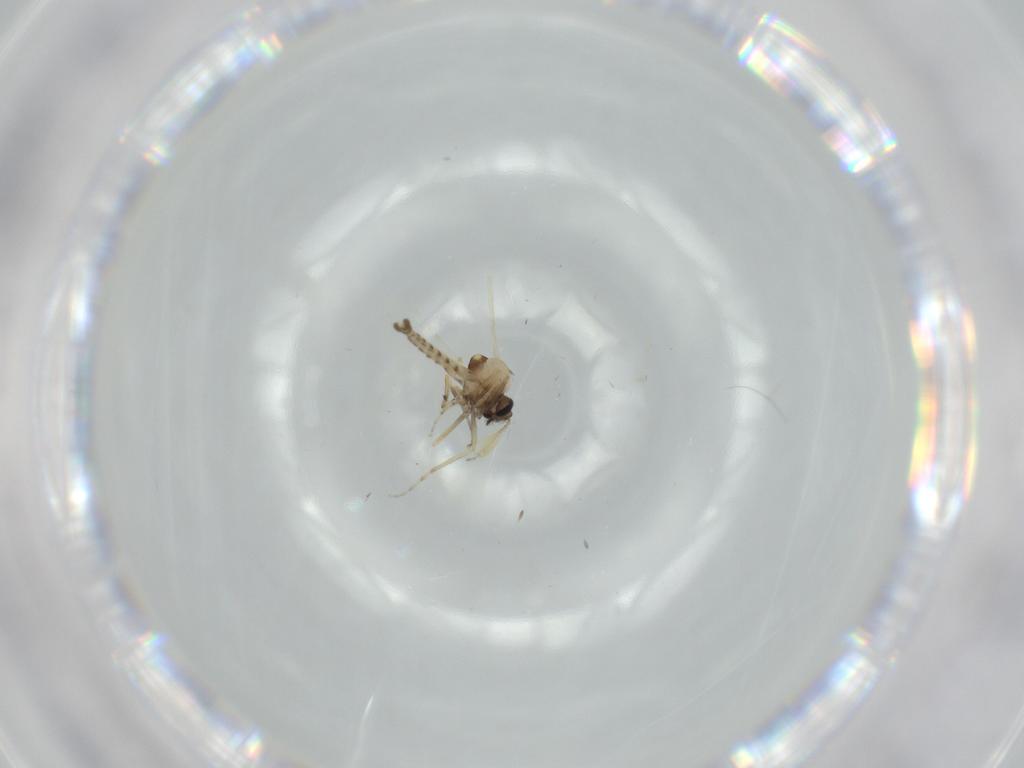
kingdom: Animalia
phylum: Arthropoda
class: Insecta
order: Diptera
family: Ceratopogonidae
